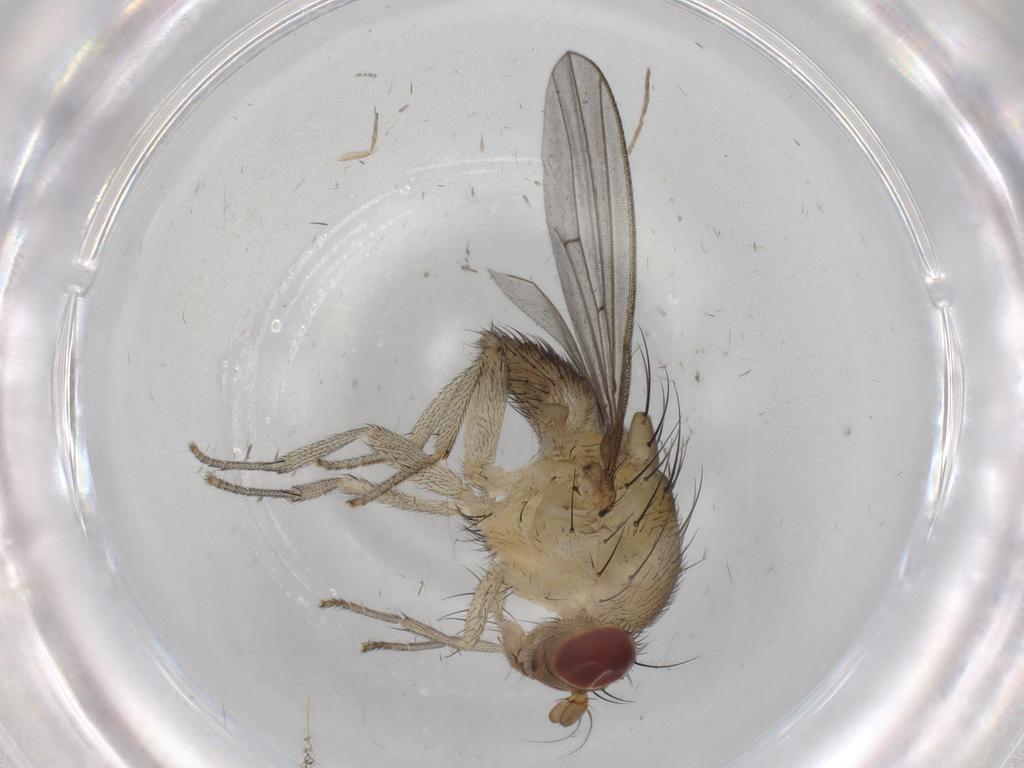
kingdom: Animalia
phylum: Arthropoda
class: Insecta
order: Diptera
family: Phoridae
